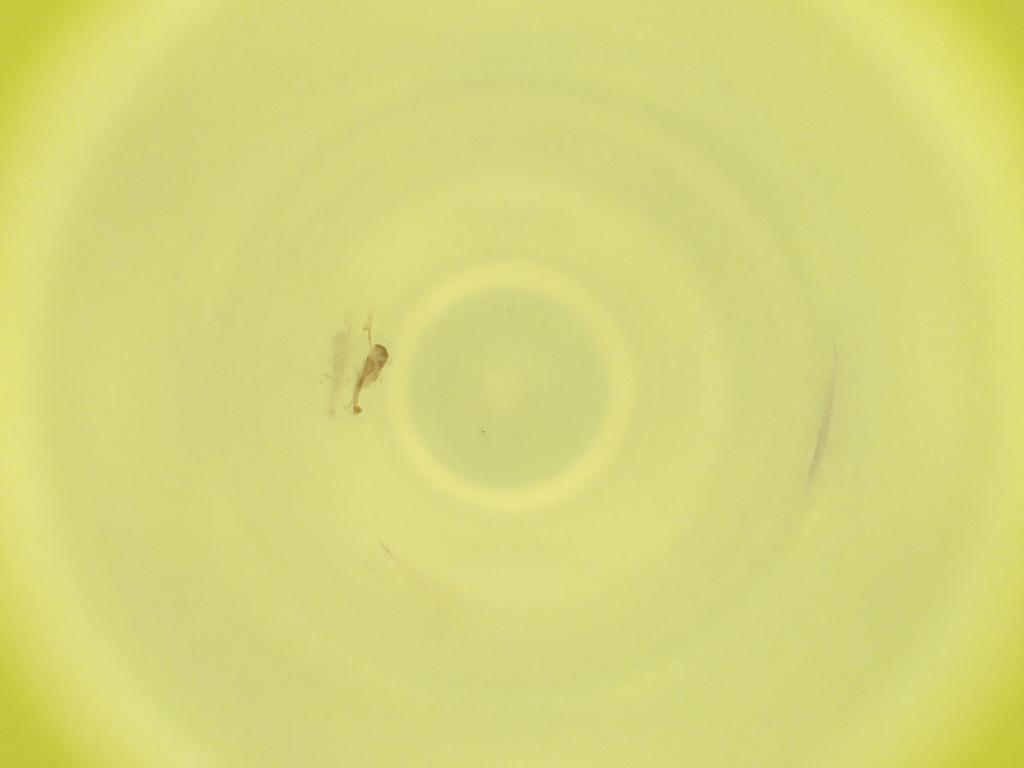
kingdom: Animalia
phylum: Arthropoda
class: Insecta
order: Diptera
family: Cecidomyiidae
